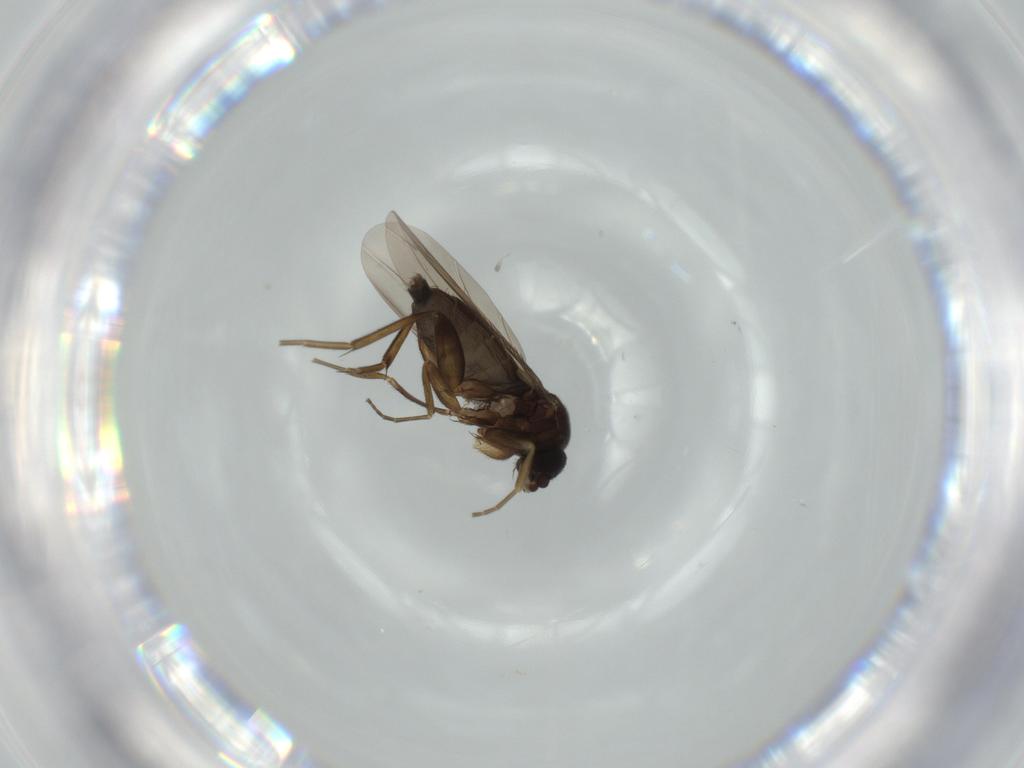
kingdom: Animalia
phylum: Arthropoda
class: Insecta
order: Diptera
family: Phoridae
